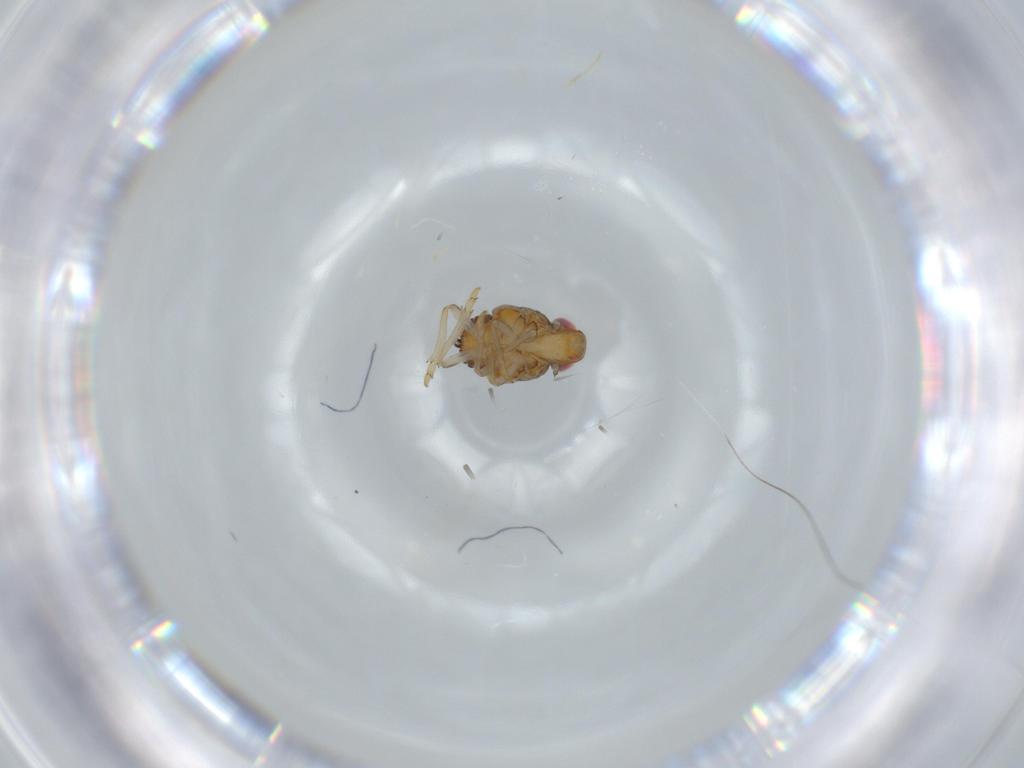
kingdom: Animalia
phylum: Arthropoda
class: Insecta
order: Hemiptera
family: Issidae
